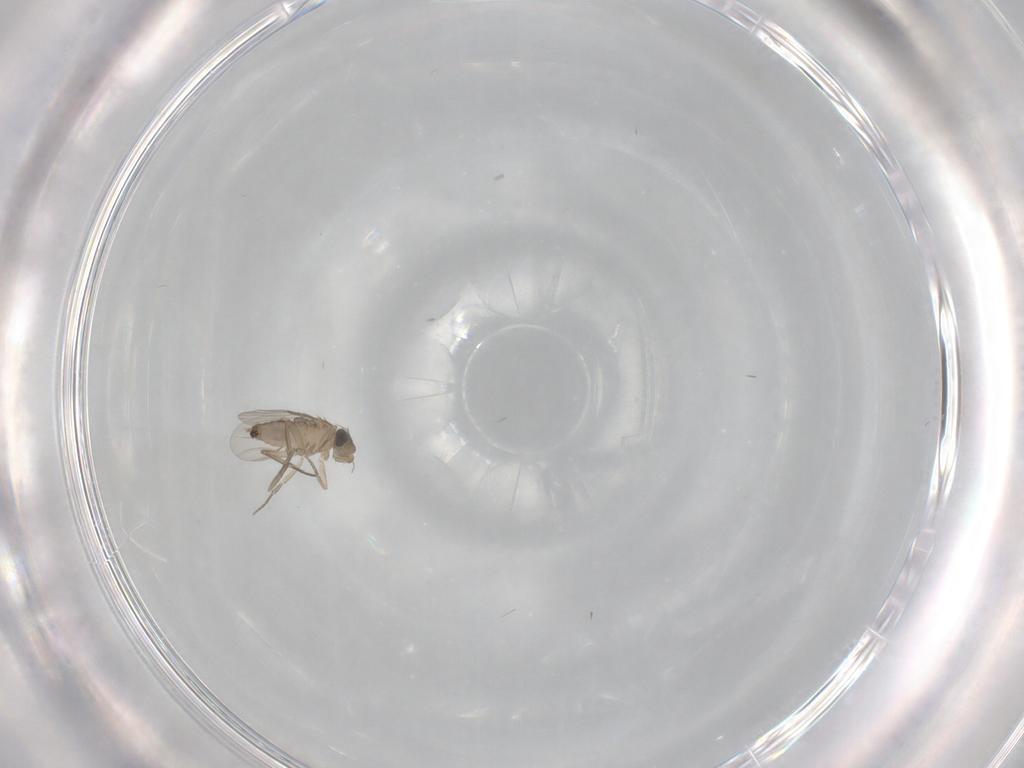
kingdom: Animalia
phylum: Arthropoda
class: Insecta
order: Diptera
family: Phoridae
